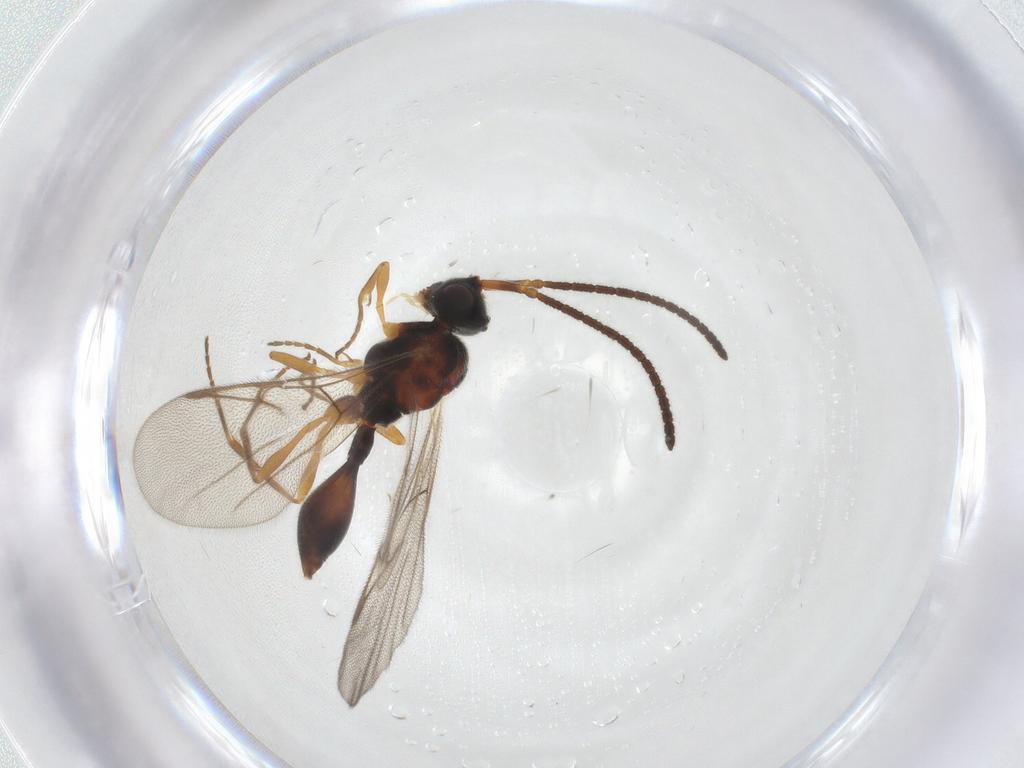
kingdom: Animalia
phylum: Arthropoda
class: Insecta
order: Hymenoptera
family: Diapriidae
